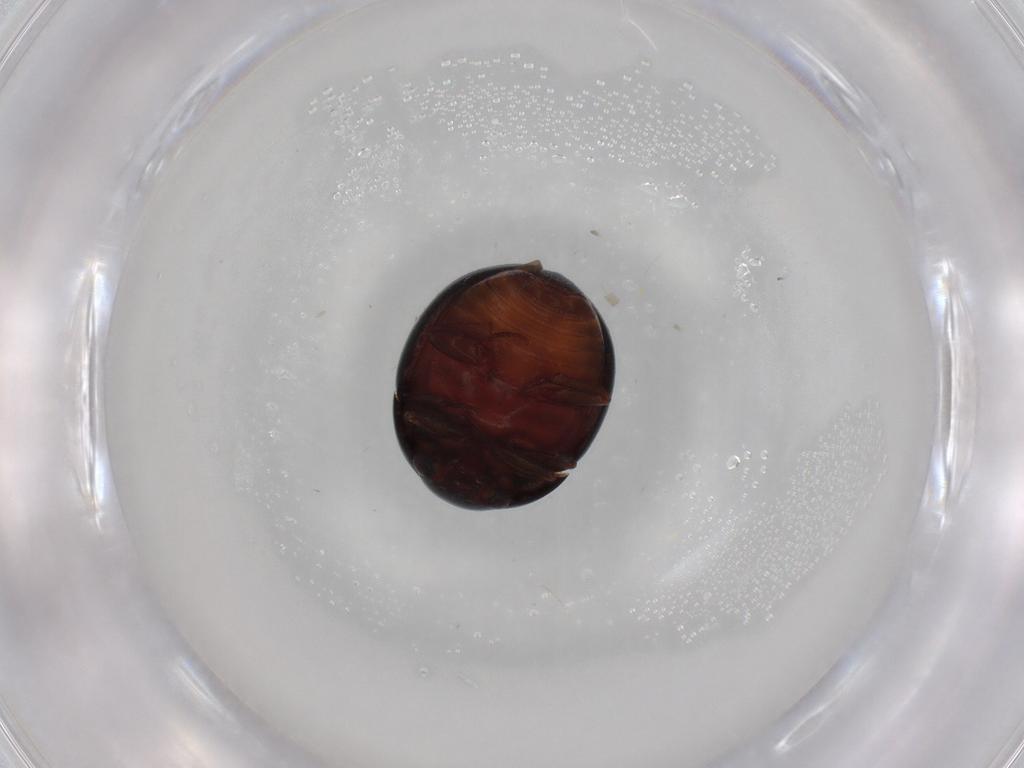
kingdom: Animalia
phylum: Arthropoda
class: Insecta
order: Coleoptera
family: Nitidulidae
